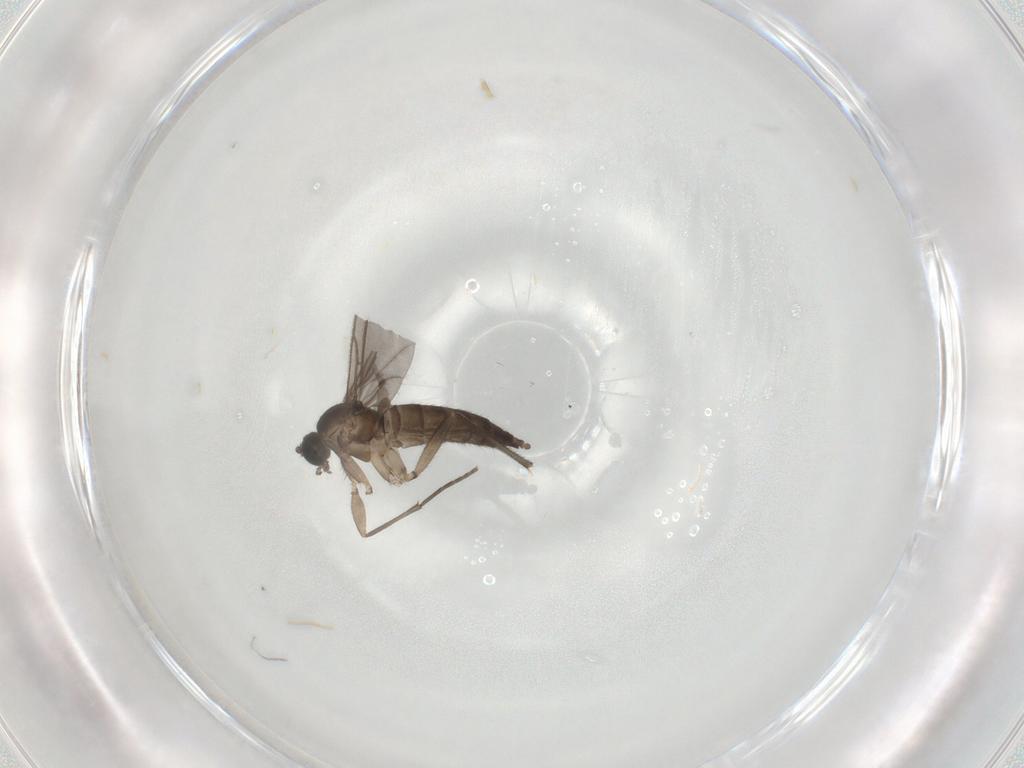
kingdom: Animalia
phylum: Arthropoda
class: Insecta
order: Diptera
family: Sciaridae
